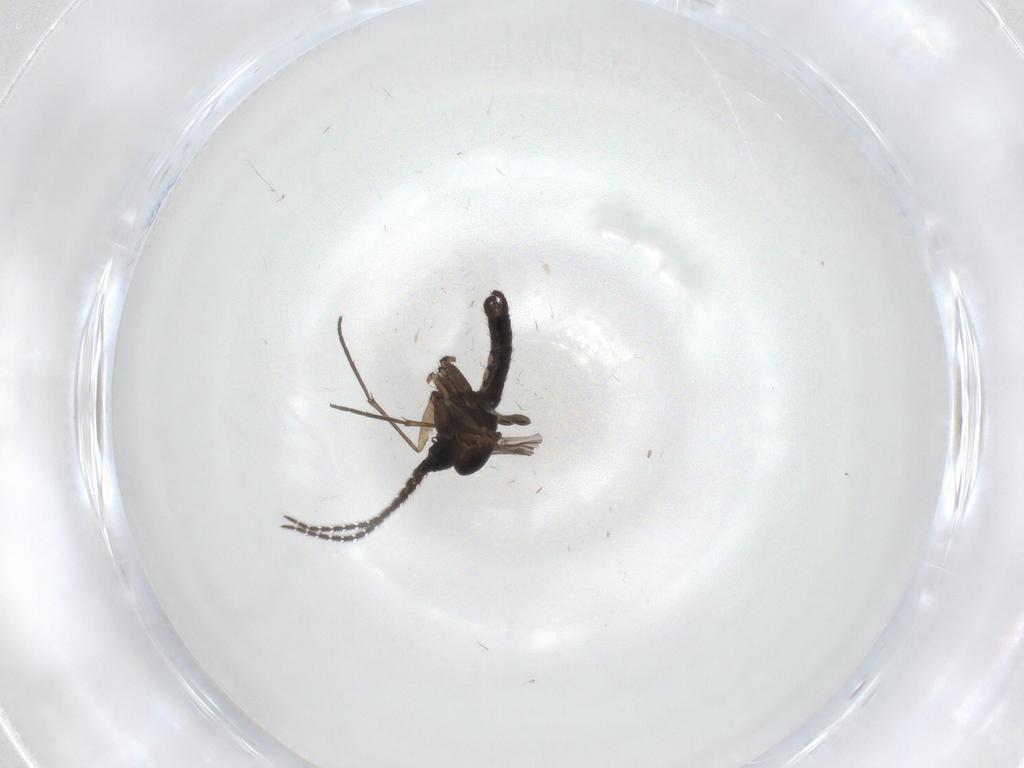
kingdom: Animalia
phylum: Arthropoda
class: Insecta
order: Diptera
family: Sciaridae
